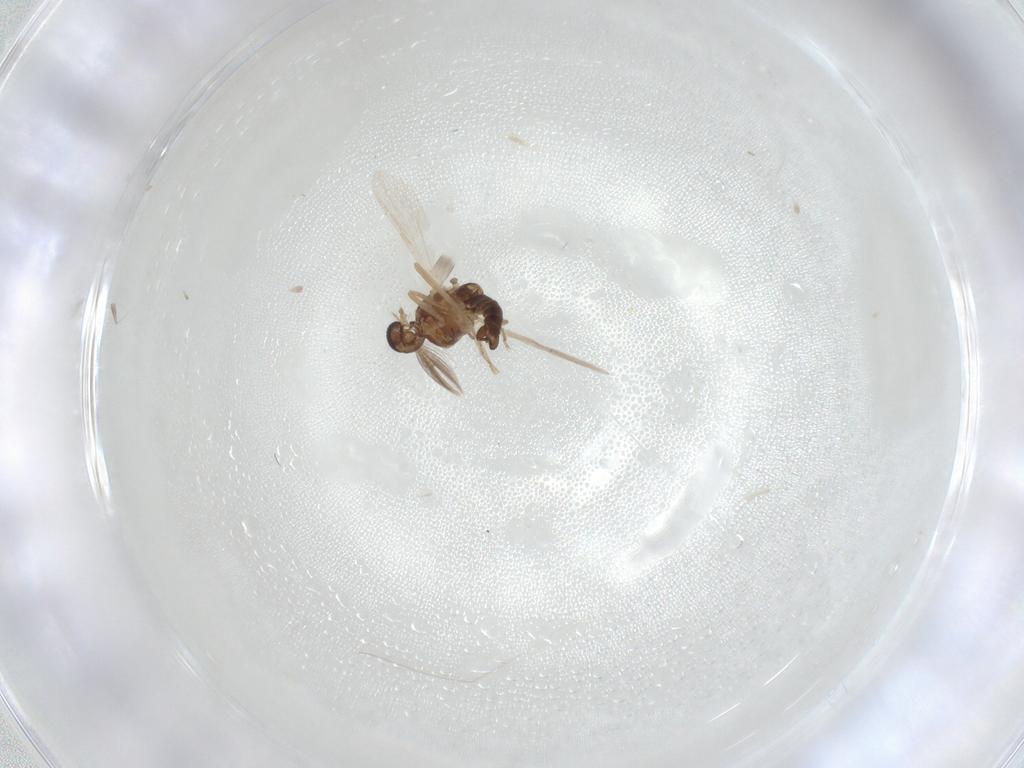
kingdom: Animalia
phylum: Arthropoda
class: Insecta
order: Diptera
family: Ceratopogonidae
